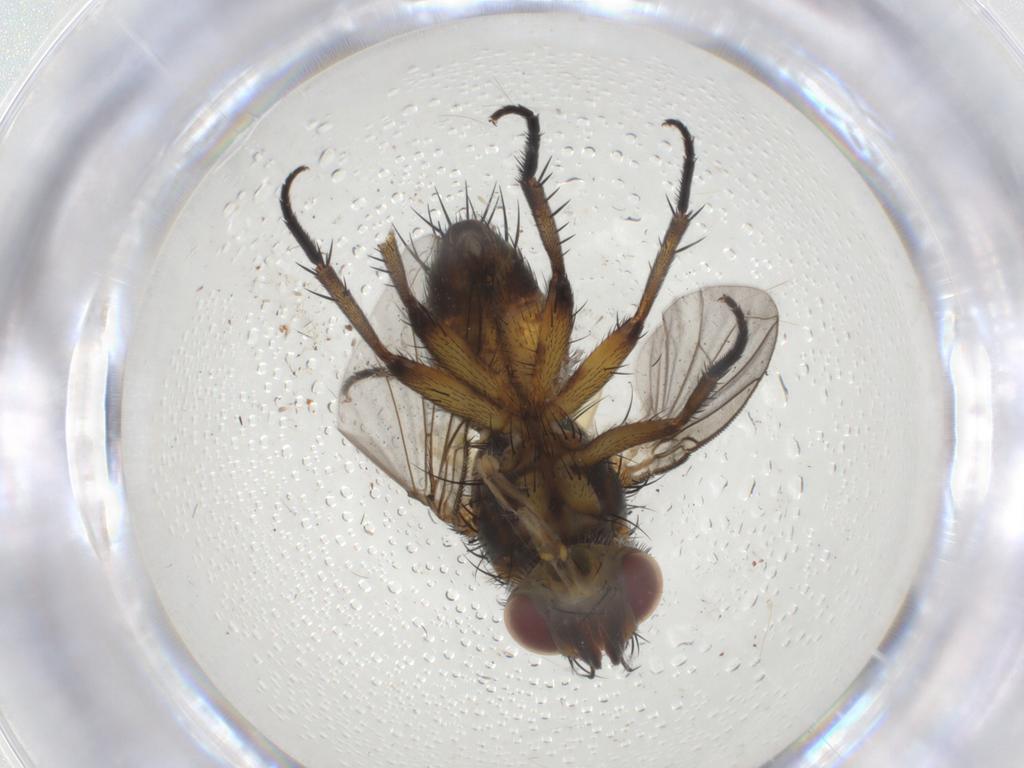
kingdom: Animalia
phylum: Arthropoda
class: Insecta
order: Diptera
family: Tachinidae
